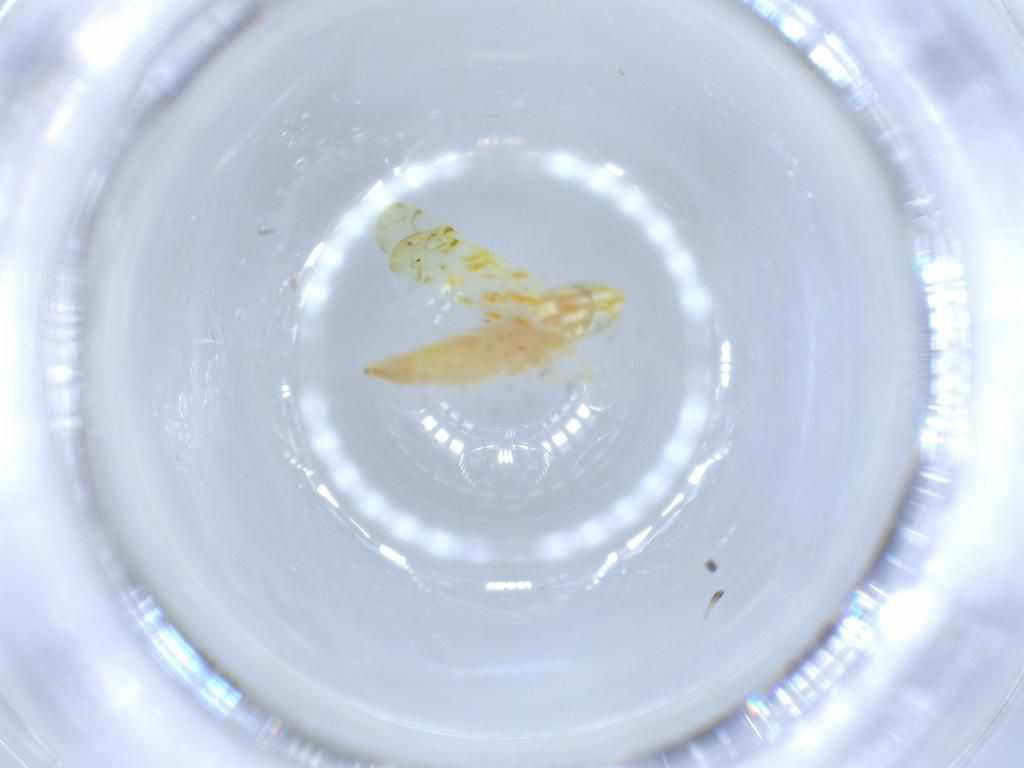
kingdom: Animalia
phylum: Arthropoda
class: Insecta
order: Hemiptera
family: Cicadellidae
